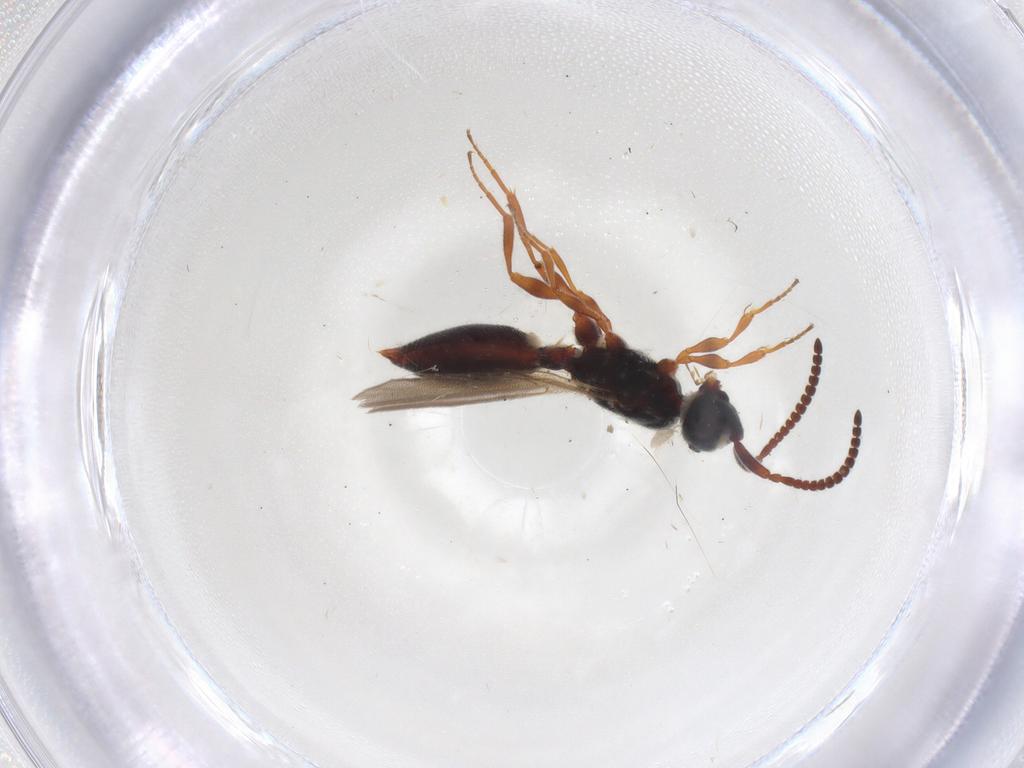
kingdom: Animalia
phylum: Arthropoda
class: Insecta
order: Hymenoptera
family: Diapriidae
